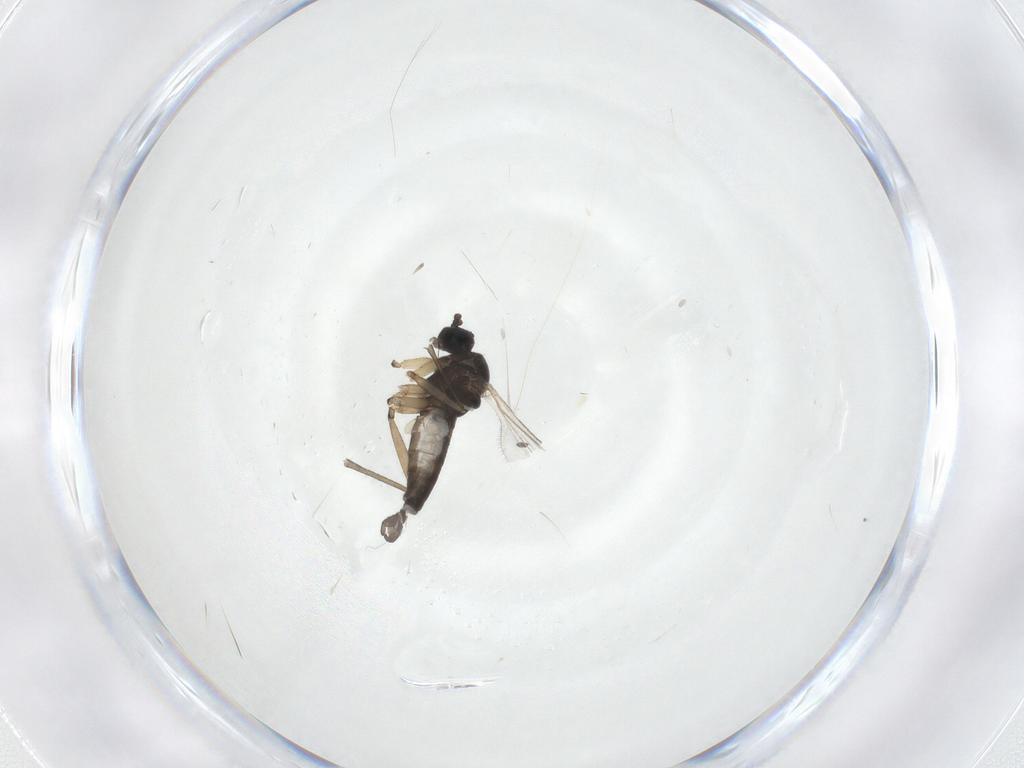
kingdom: Animalia
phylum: Arthropoda
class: Insecta
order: Diptera
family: Sciaridae
